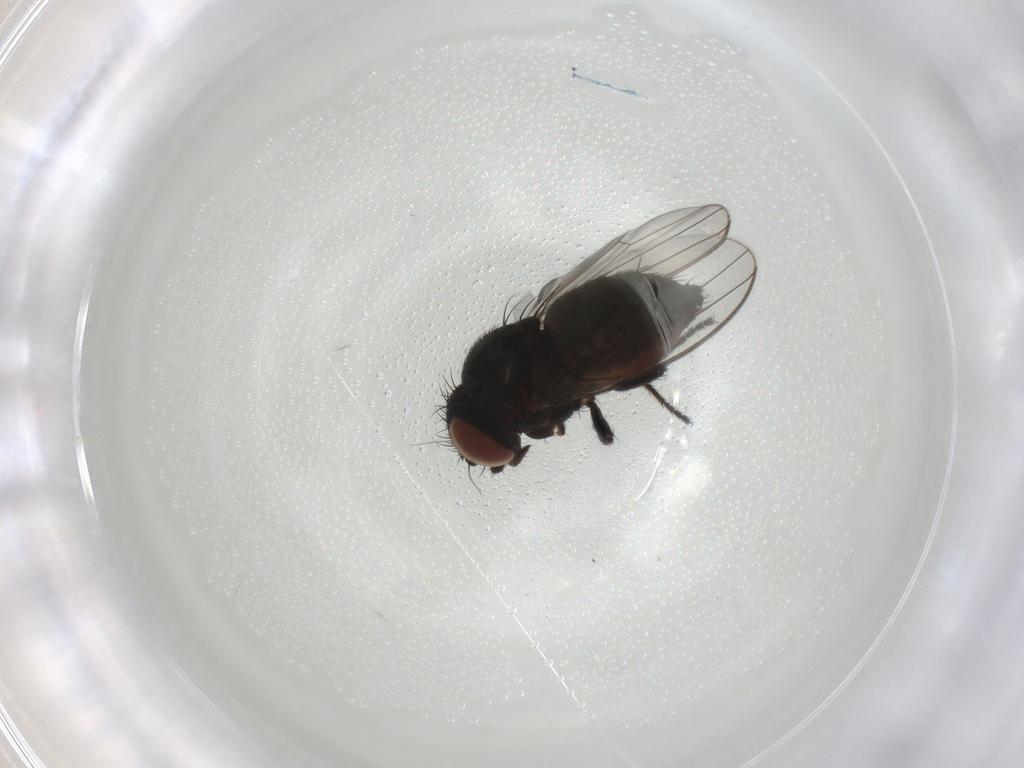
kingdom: Animalia
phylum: Arthropoda
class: Insecta
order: Diptera
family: Milichiidae
